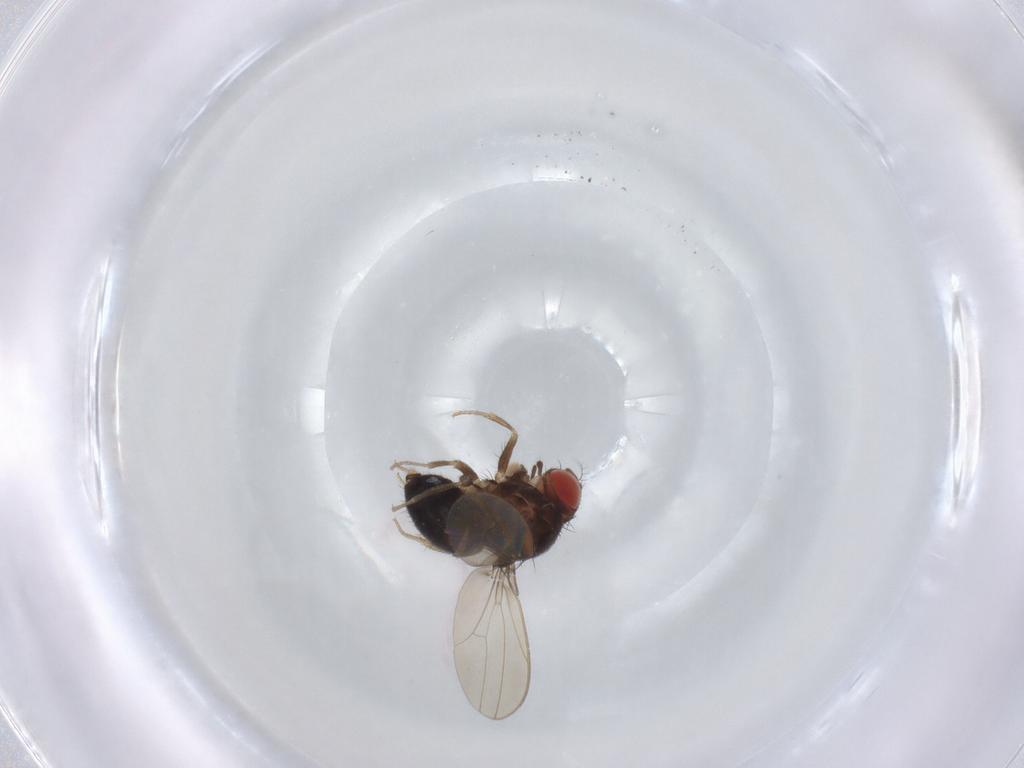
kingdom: Animalia
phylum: Arthropoda
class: Insecta
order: Diptera
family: Drosophilidae
